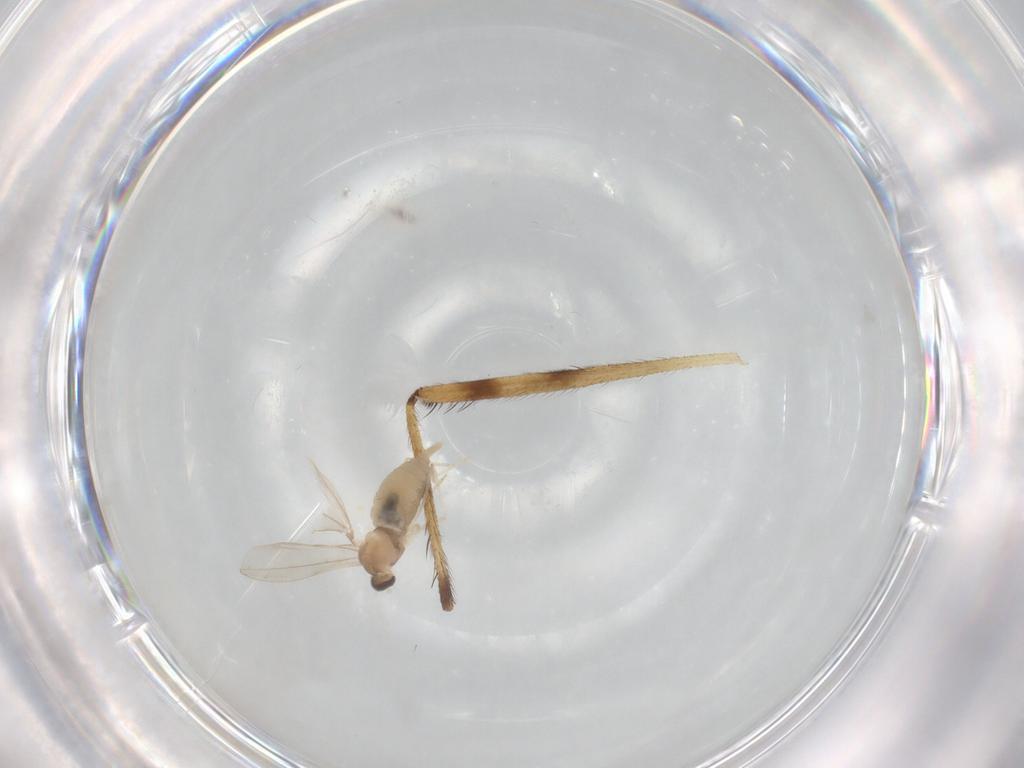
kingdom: Animalia
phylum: Arthropoda
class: Insecta
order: Diptera
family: Cecidomyiidae
